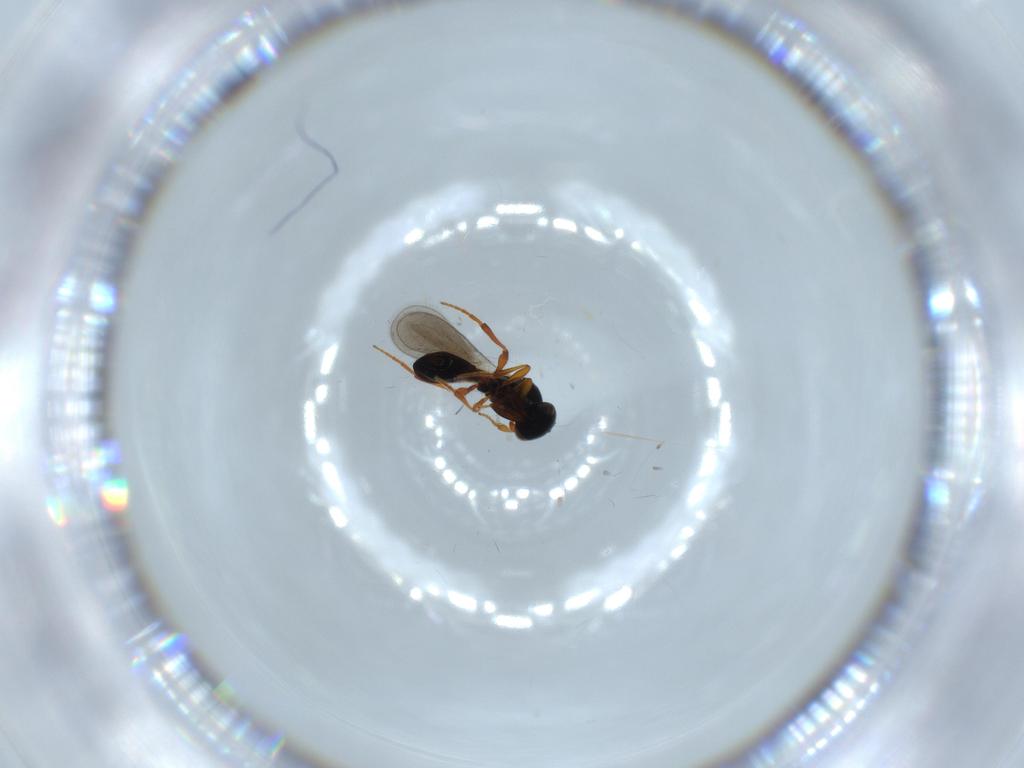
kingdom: Animalia
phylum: Arthropoda
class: Insecta
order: Hymenoptera
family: Platygastridae
